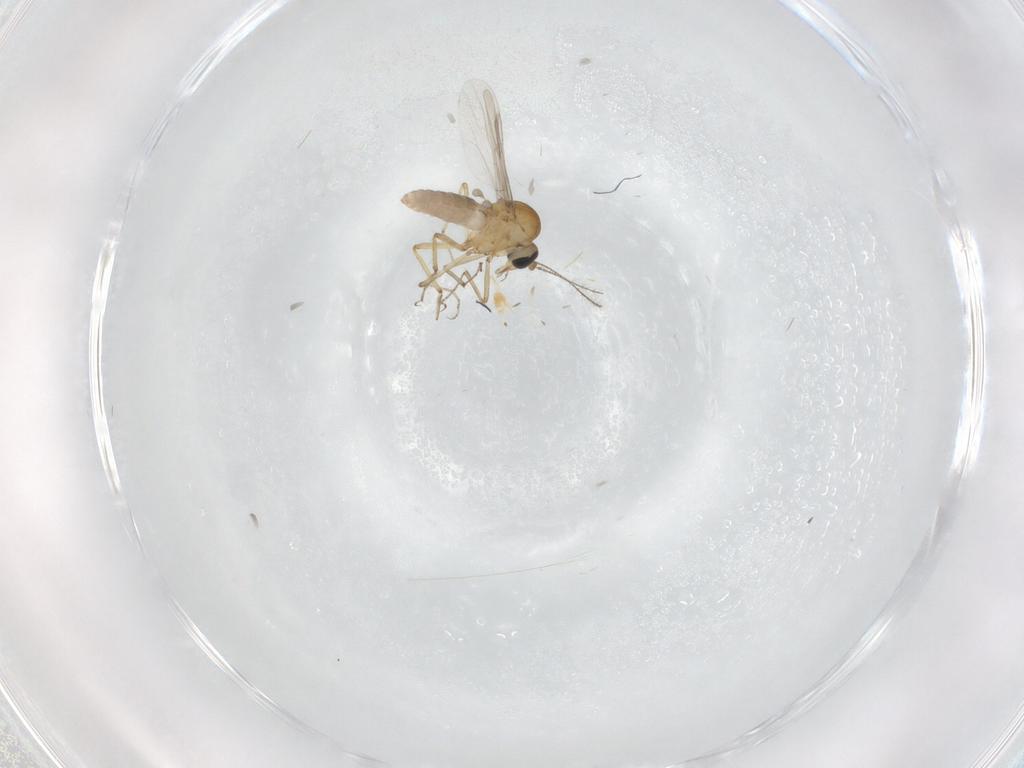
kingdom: Animalia
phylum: Arthropoda
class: Insecta
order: Diptera
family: Ceratopogonidae
